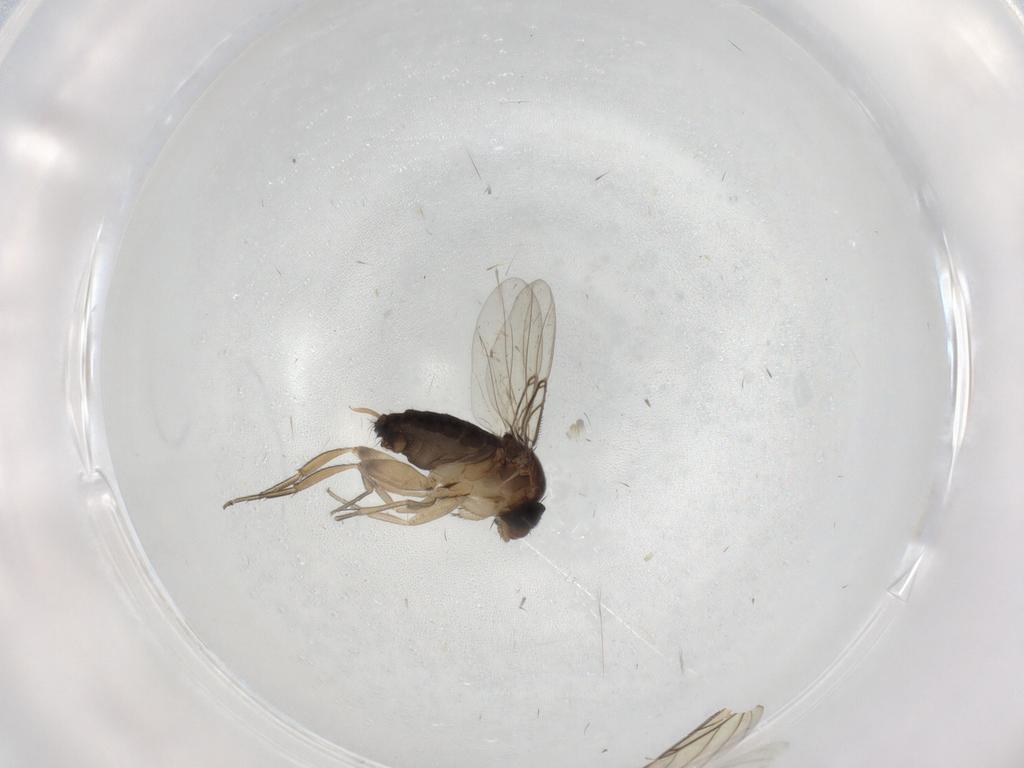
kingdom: Animalia
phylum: Arthropoda
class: Insecta
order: Diptera
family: Phoridae
